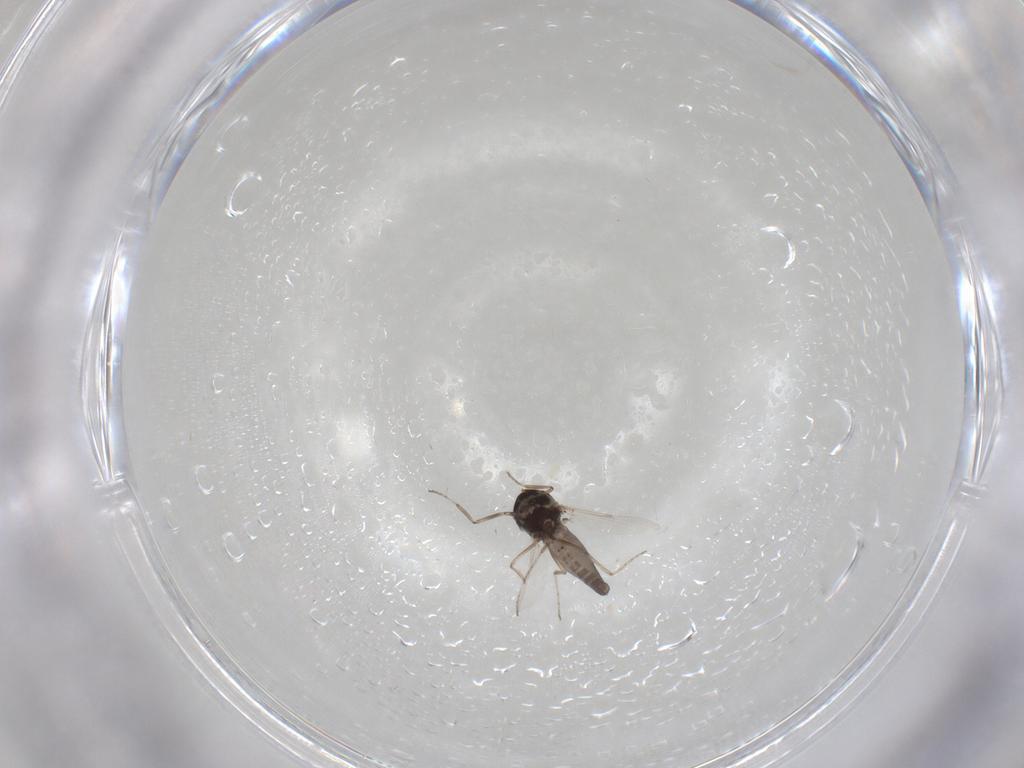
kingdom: Animalia
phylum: Arthropoda
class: Insecta
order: Diptera
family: Ceratopogonidae
